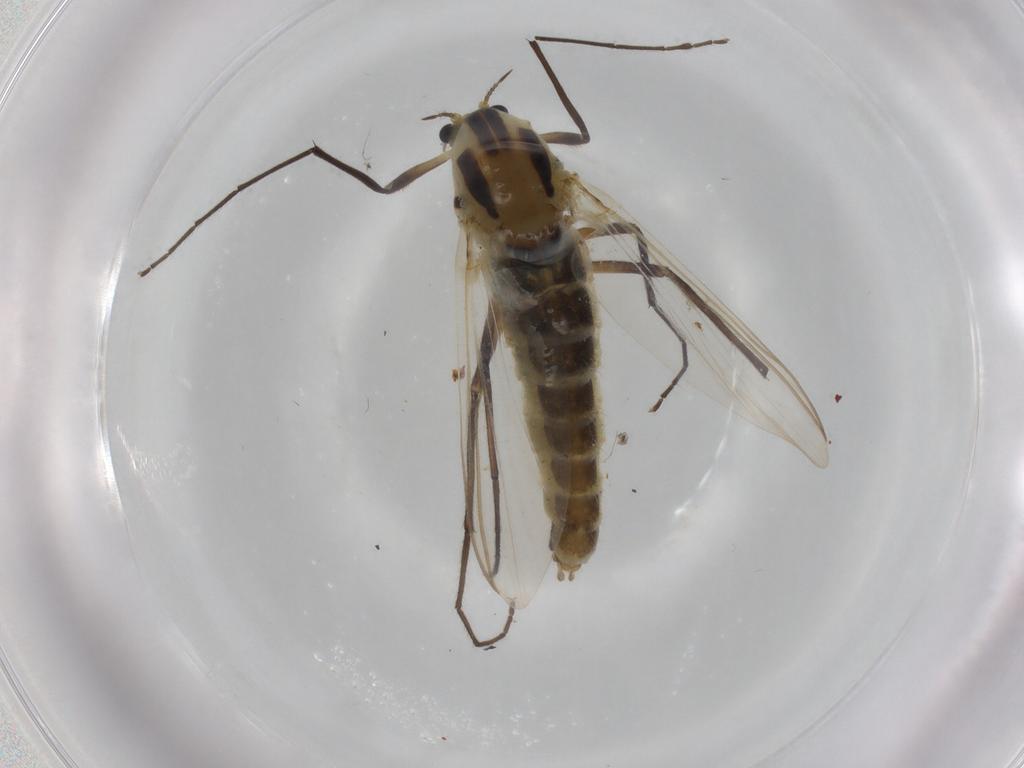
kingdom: Animalia
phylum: Arthropoda
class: Insecta
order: Diptera
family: Chironomidae
